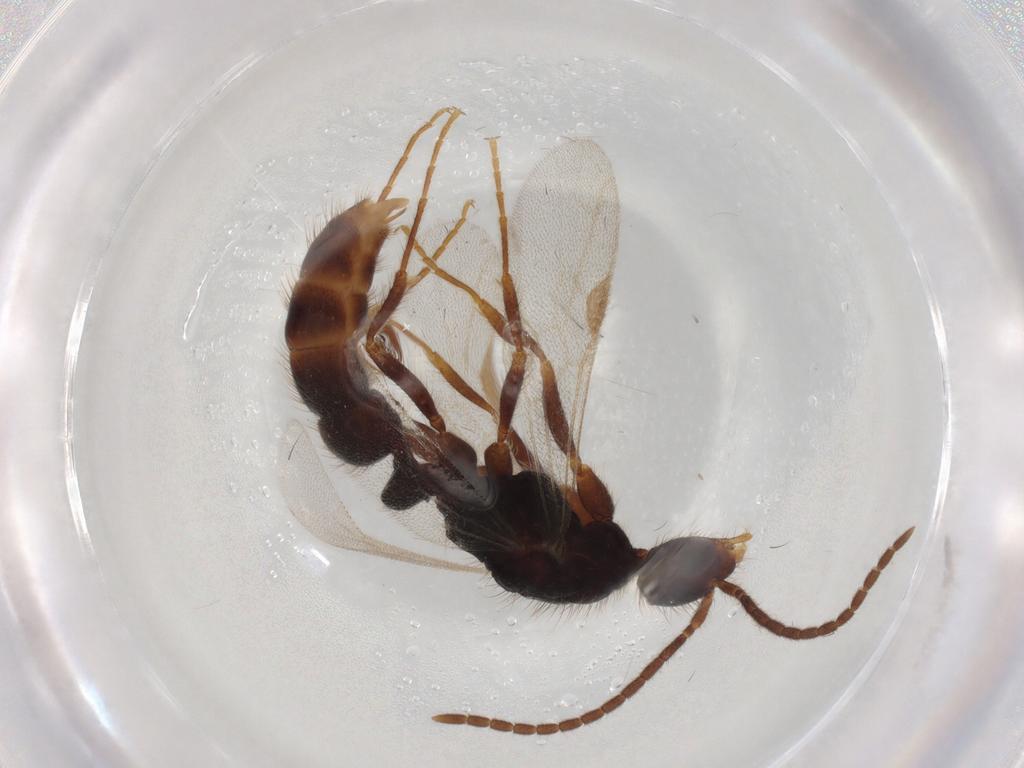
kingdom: Animalia
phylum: Arthropoda
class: Insecta
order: Hymenoptera
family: Formicidae
